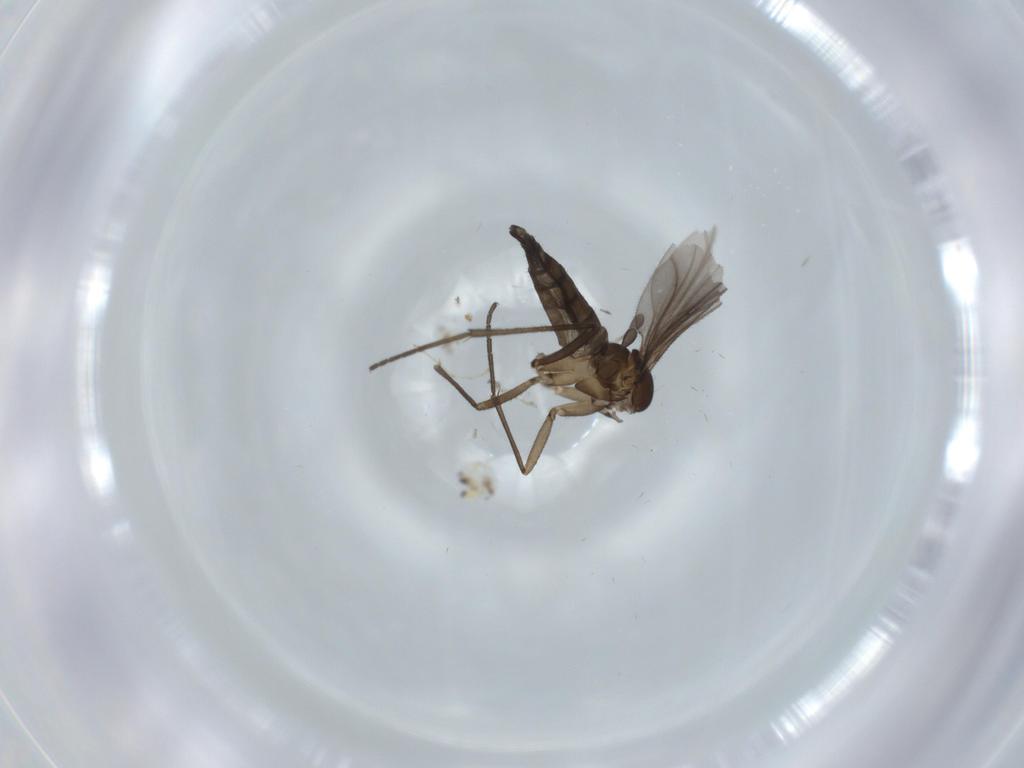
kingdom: Animalia
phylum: Arthropoda
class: Insecta
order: Diptera
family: Sciaridae
